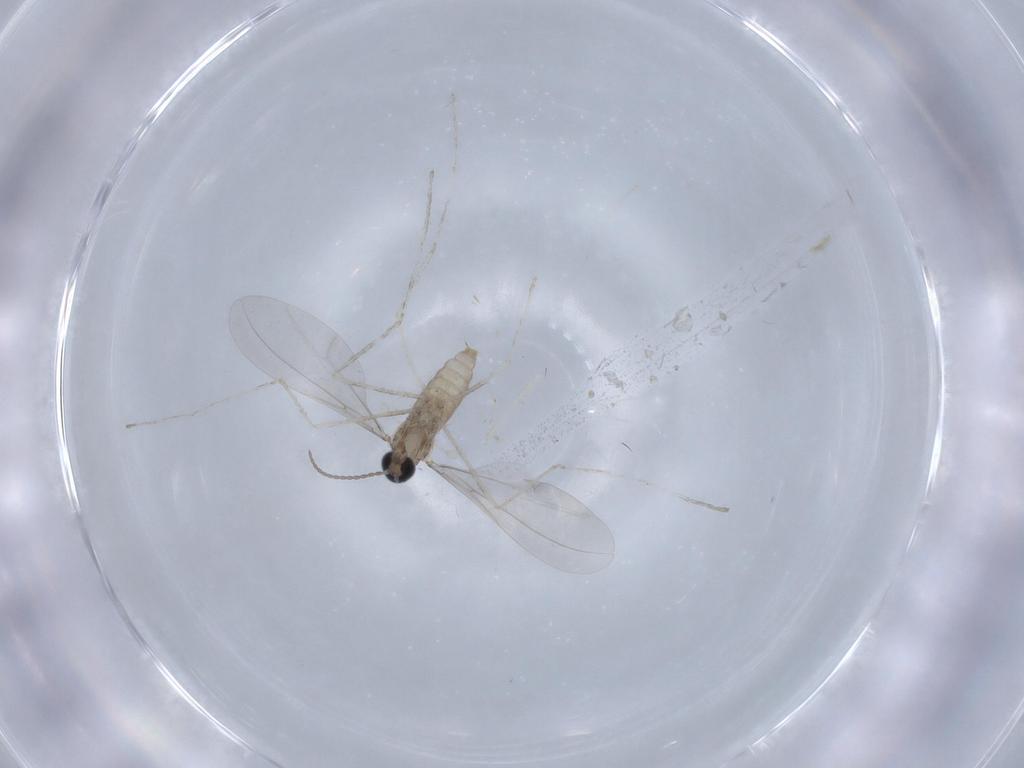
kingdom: Animalia
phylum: Arthropoda
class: Insecta
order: Diptera
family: Cecidomyiidae
